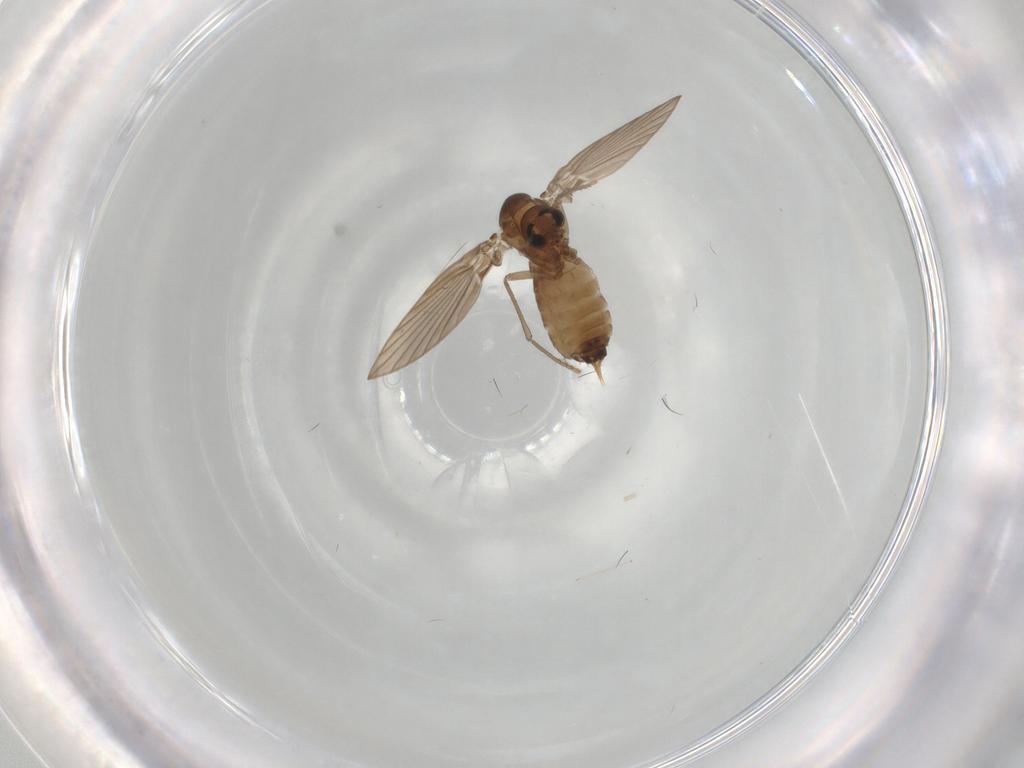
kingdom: Animalia
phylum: Arthropoda
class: Insecta
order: Diptera
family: Psychodidae
